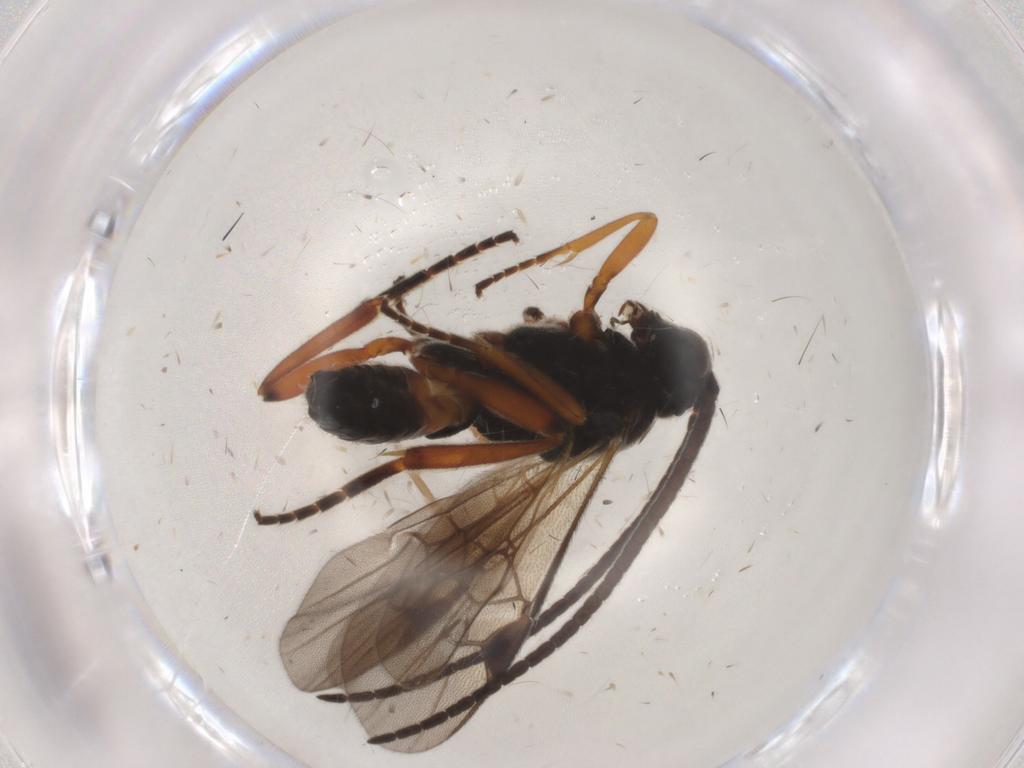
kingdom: Animalia
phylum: Arthropoda
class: Insecta
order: Hymenoptera
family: Braconidae
